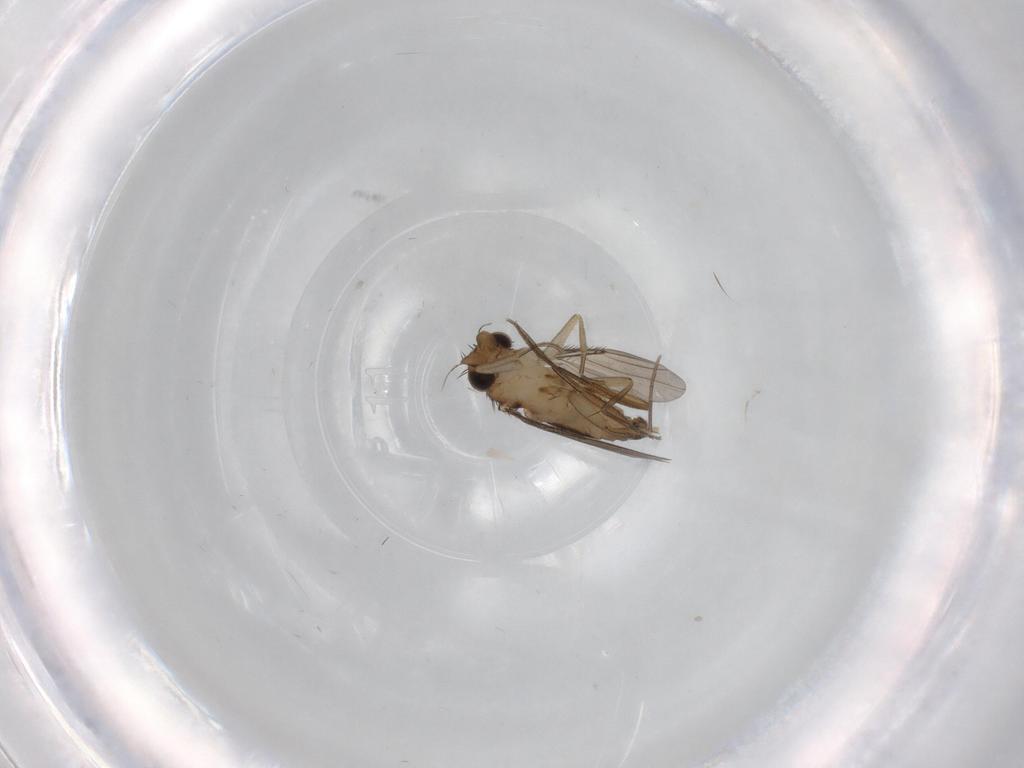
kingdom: Animalia
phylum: Arthropoda
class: Insecta
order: Diptera
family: Phoridae
